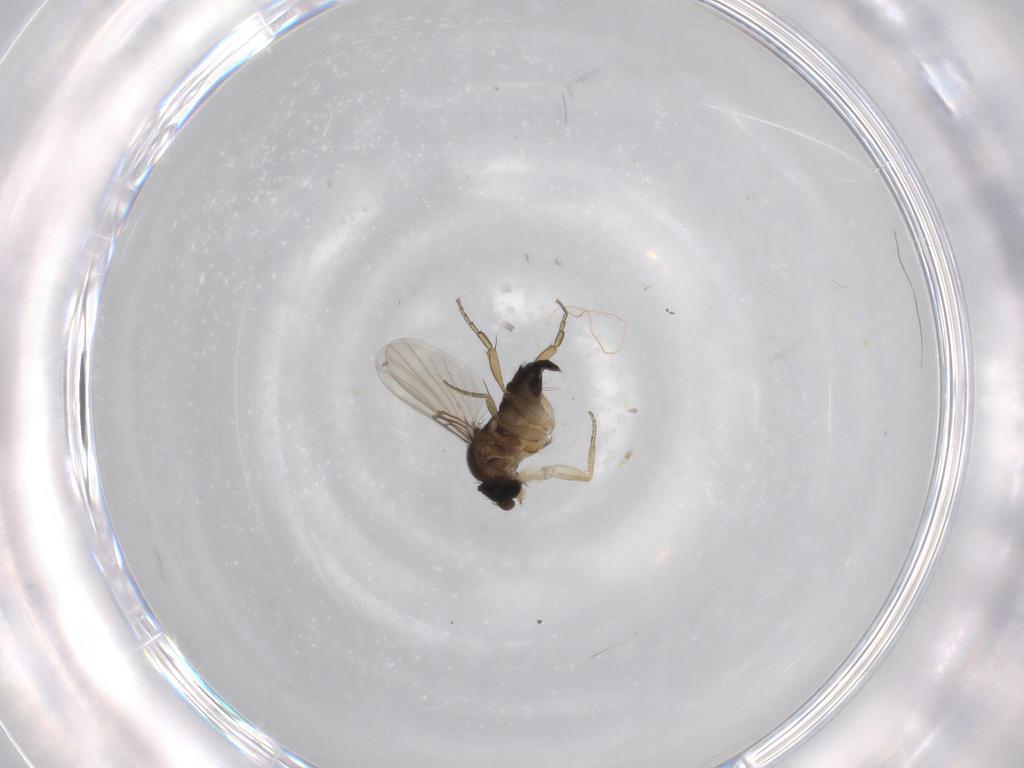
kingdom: Animalia
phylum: Arthropoda
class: Insecta
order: Diptera
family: Phoridae
